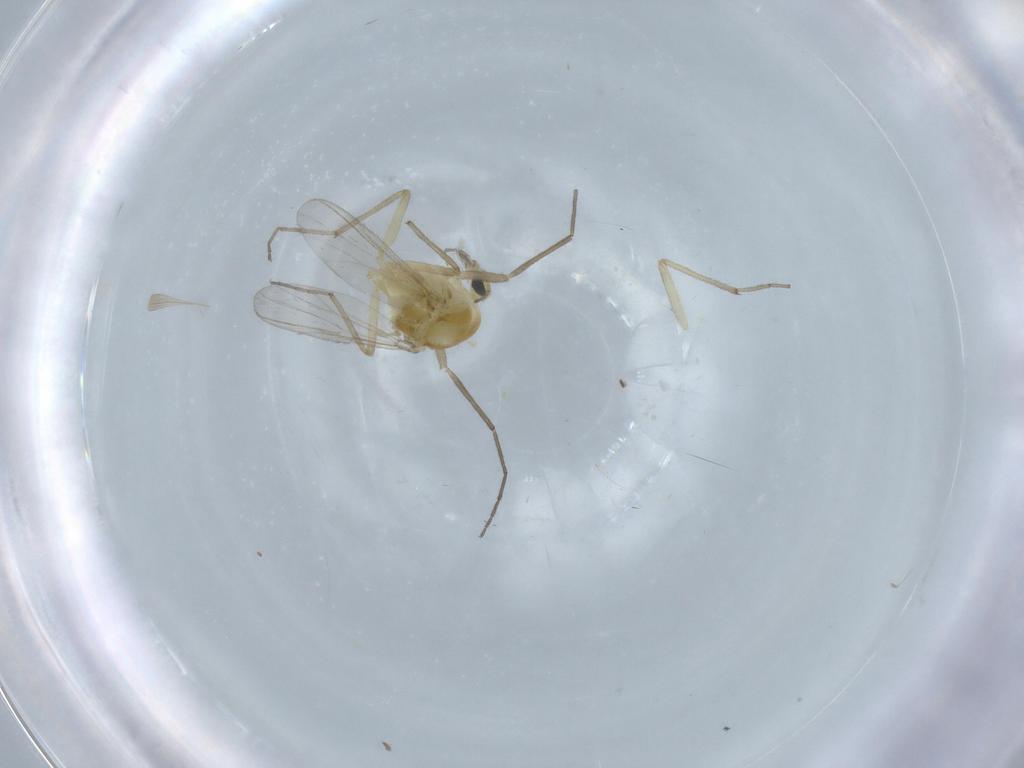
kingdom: Animalia
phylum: Arthropoda
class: Insecta
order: Diptera
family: Chironomidae
